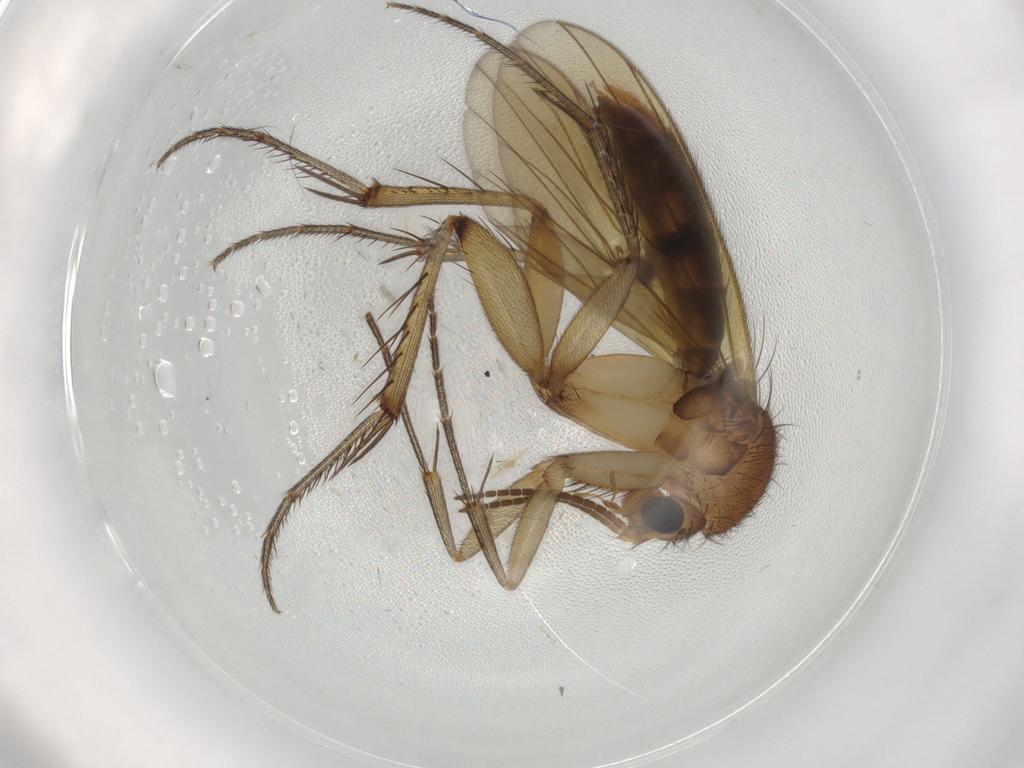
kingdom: Animalia
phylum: Arthropoda
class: Insecta
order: Diptera
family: Mycetophilidae
